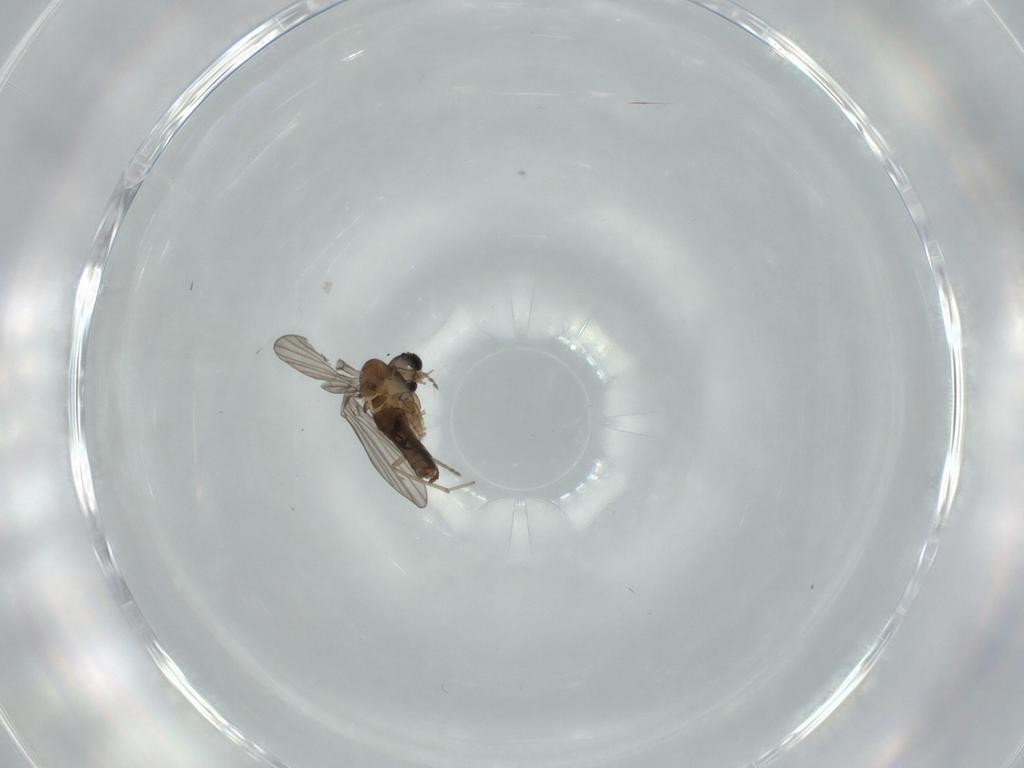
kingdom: Animalia
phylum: Arthropoda
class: Insecta
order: Diptera
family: Psychodidae
